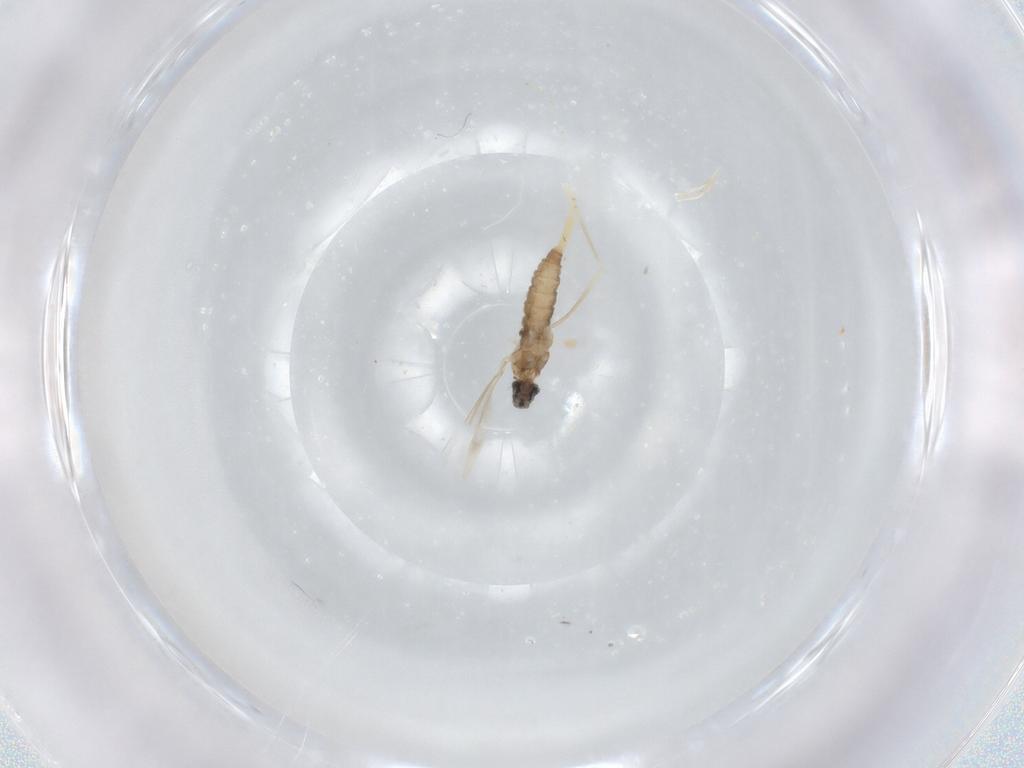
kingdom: Animalia
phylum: Arthropoda
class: Insecta
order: Diptera
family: Cecidomyiidae
